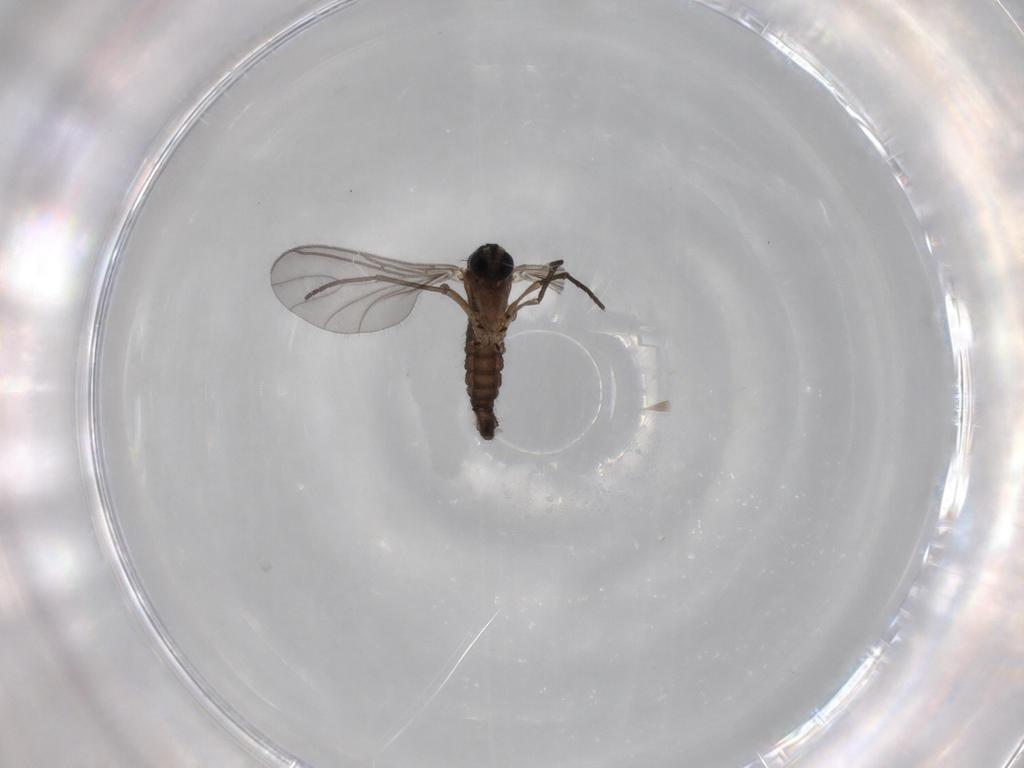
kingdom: Animalia
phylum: Arthropoda
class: Insecta
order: Diptera
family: Sciaridae
